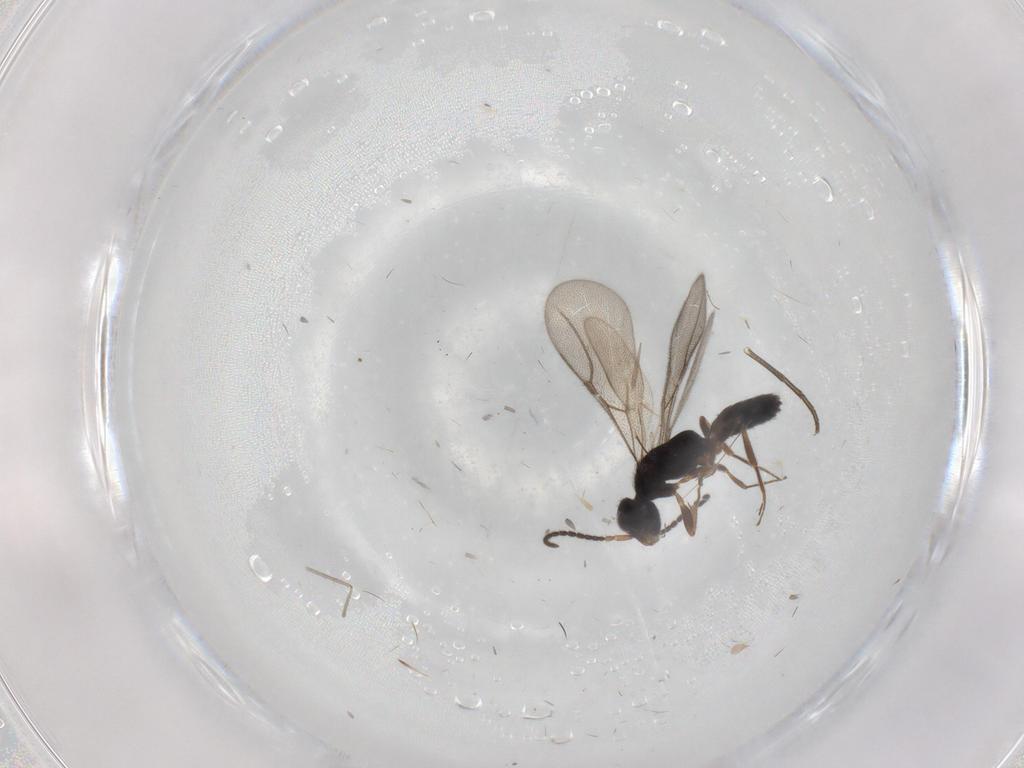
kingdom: Animalia
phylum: Arthropoda
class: Insecta
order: Hymenoptera
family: Bethylidae
